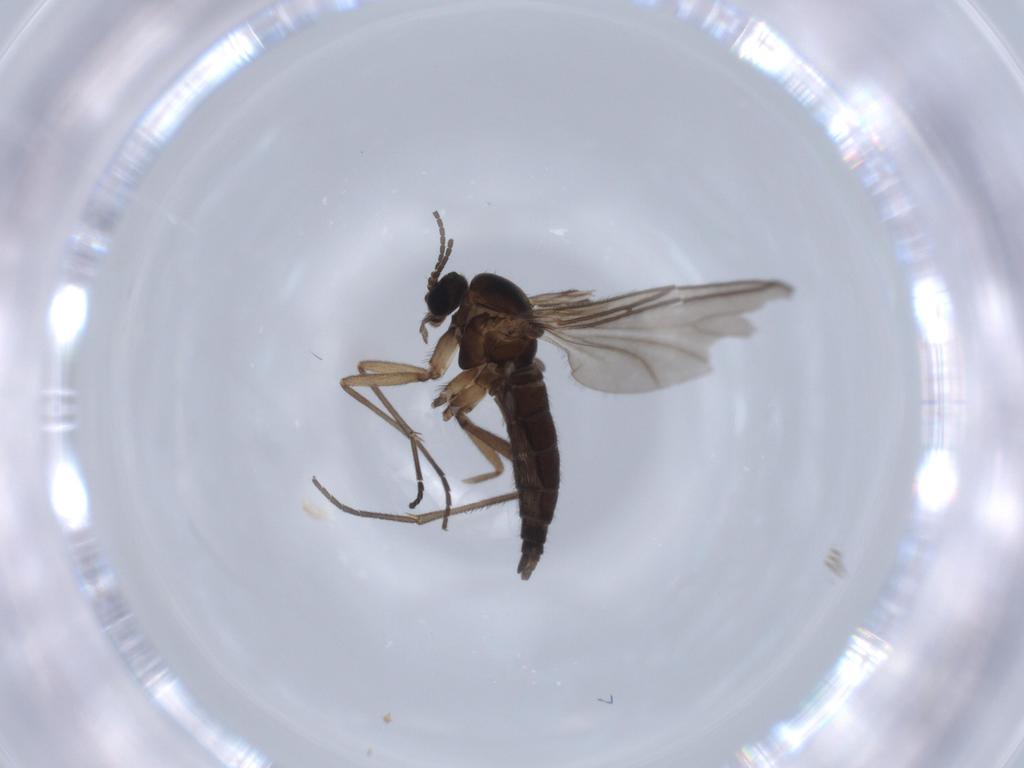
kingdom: Animalia
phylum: Arthropoda
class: Insecta
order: Diptera
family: Sciaridae
